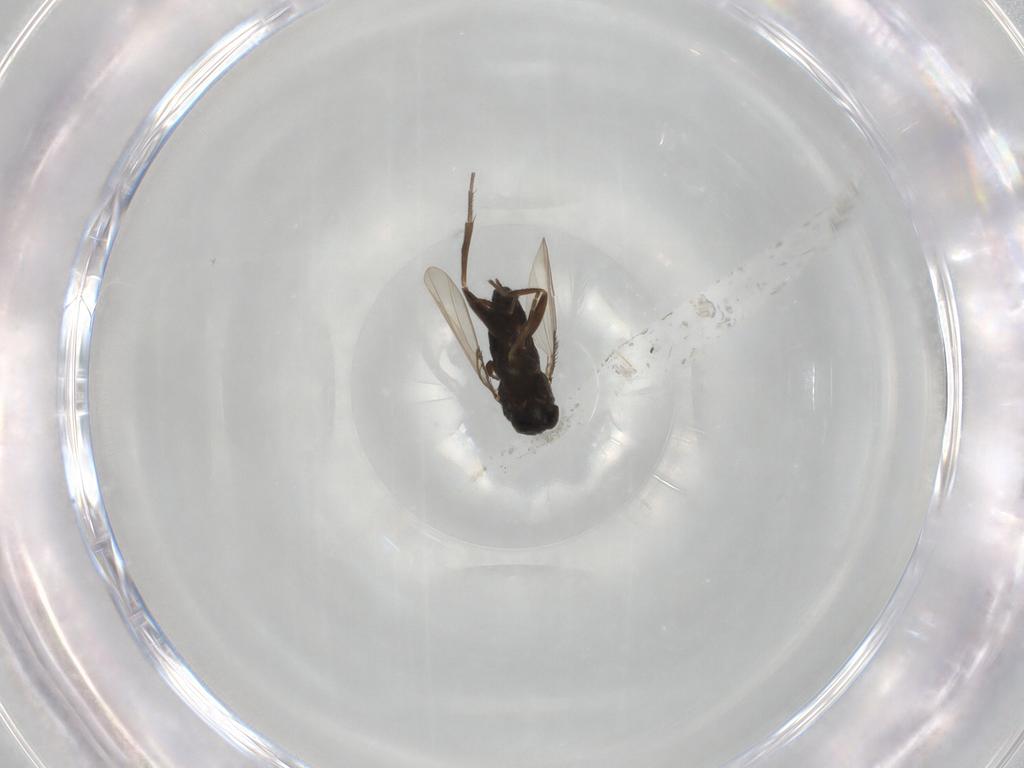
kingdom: Animalia
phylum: Arthropoda
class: Insecta
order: Diptera
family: Phoridae
